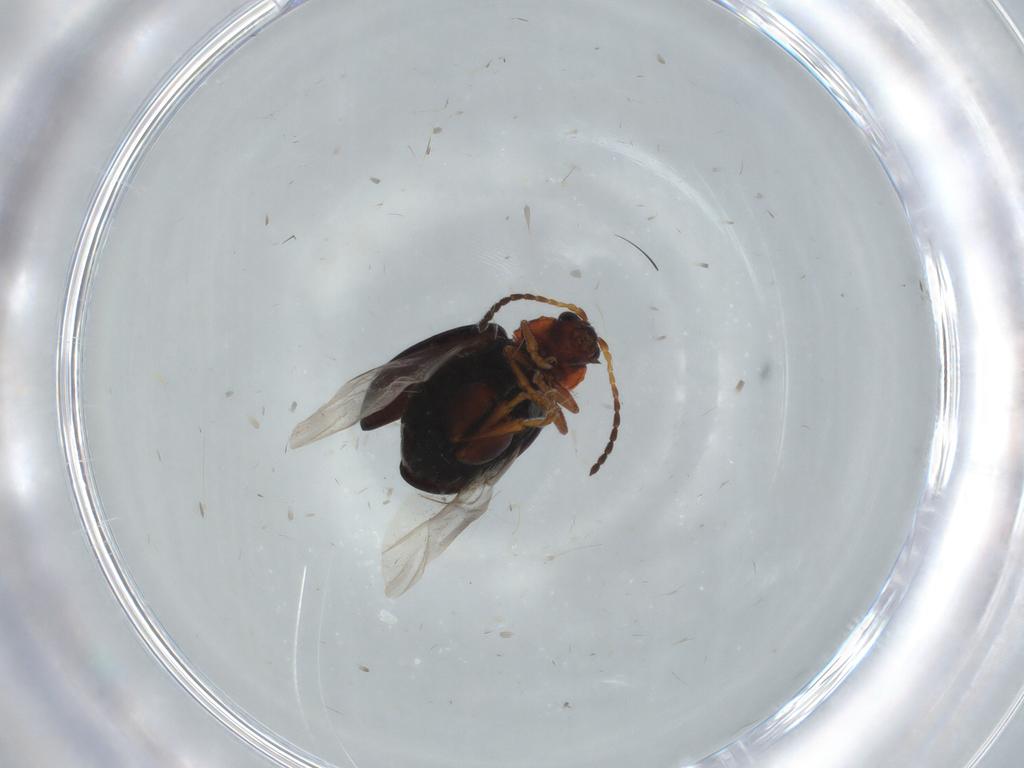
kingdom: Animalia
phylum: Arthropoda
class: Insecta
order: Coleoptera
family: Chrysomelidae
